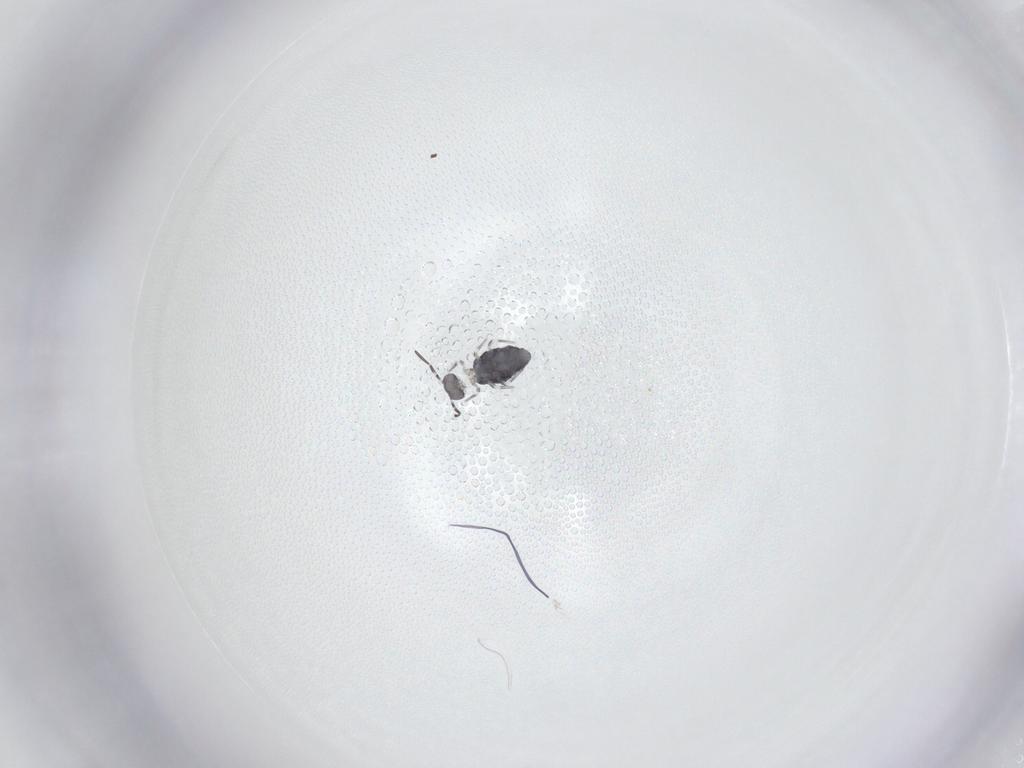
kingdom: Animalia
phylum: Arthropoda
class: Collembola
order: Symphypleona
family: Katiannidae
